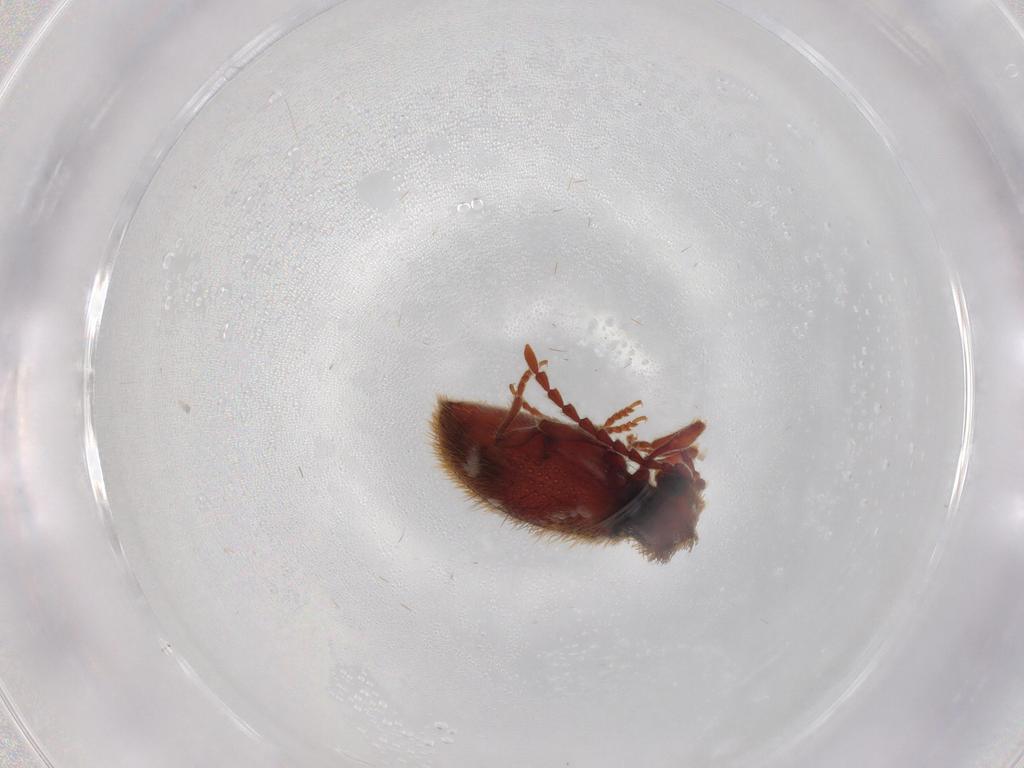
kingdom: Animalia
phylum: Arthropoda
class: Insecta
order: Coleoptera
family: Ptinidae
